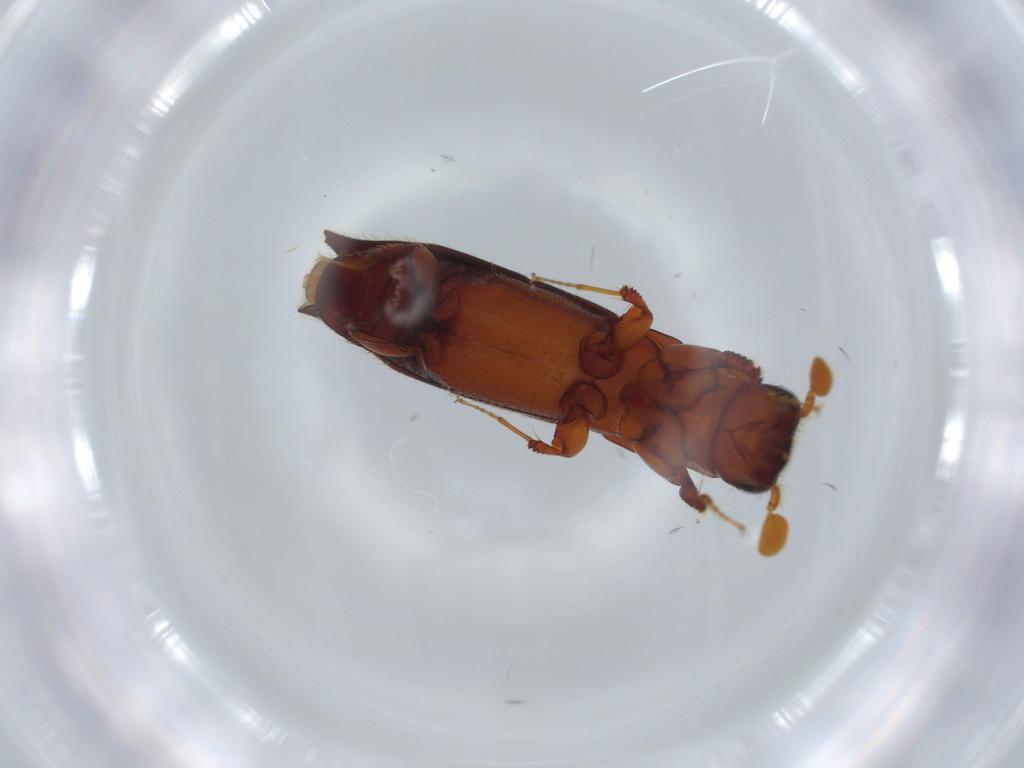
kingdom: Animalia
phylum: Arthropoda
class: Insecta
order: Coleoptera
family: Curculionidae
